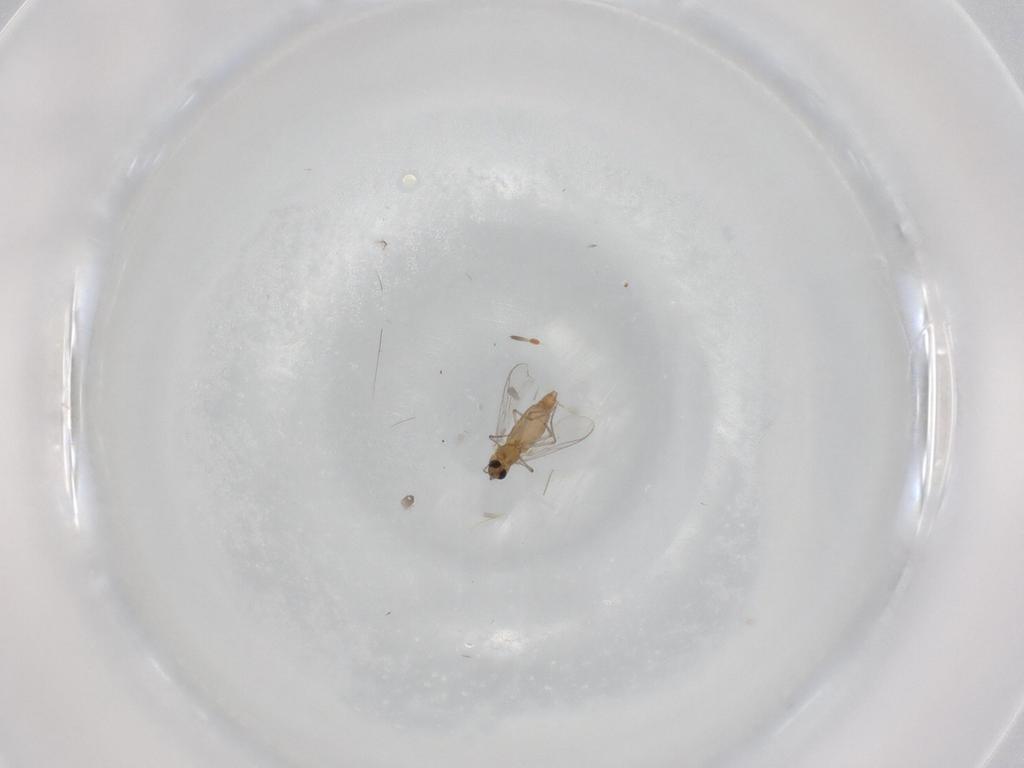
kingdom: Animalia
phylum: Arthropoda
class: Insecta
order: Diptera
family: Chironomidae
